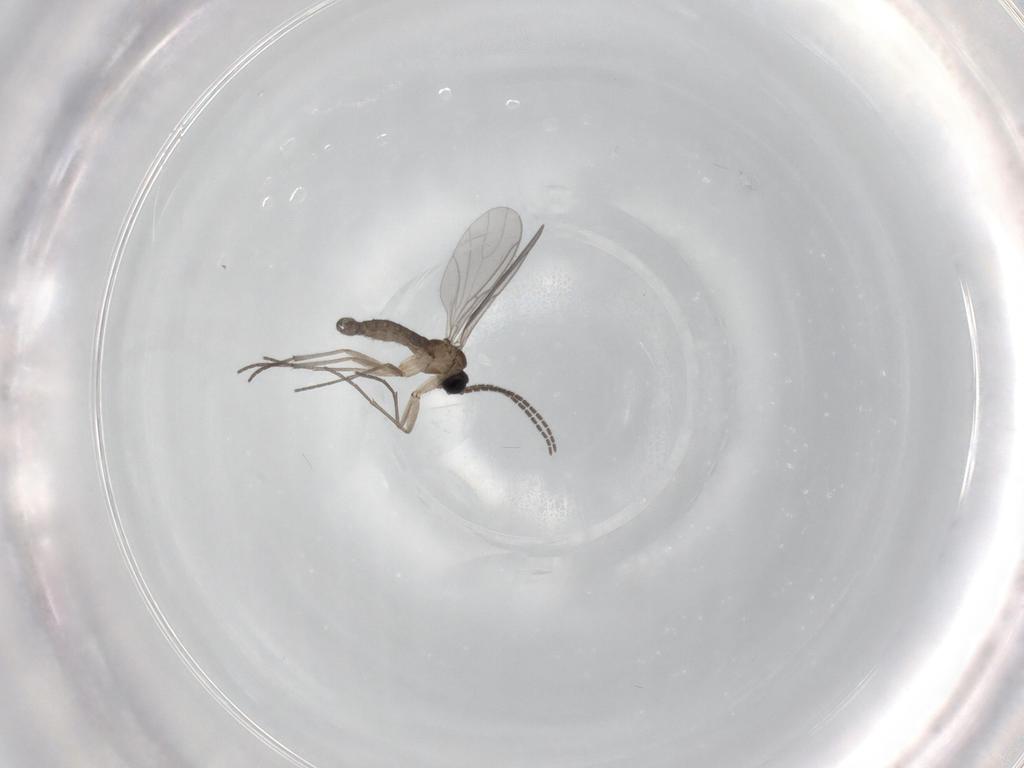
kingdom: Animalia
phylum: Arthropoda
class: Insecta
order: Diptera
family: Sciaridae
